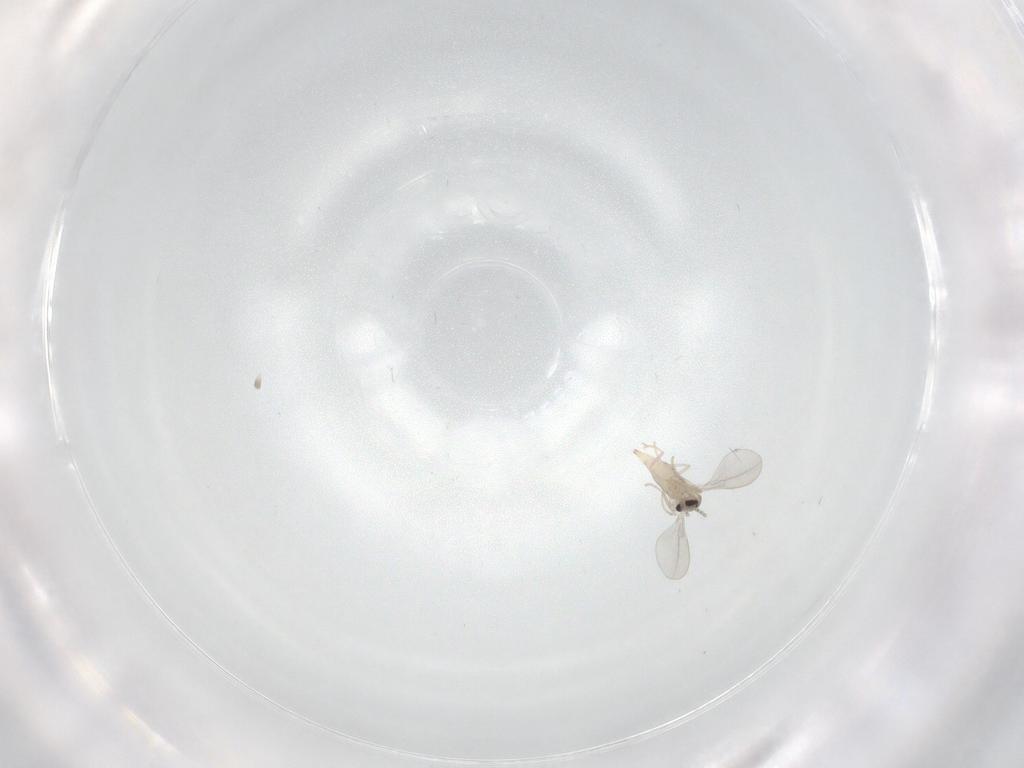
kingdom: Animalia
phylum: Arthropoda
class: Insecta
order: Diptera
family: Cecidomyiidae
